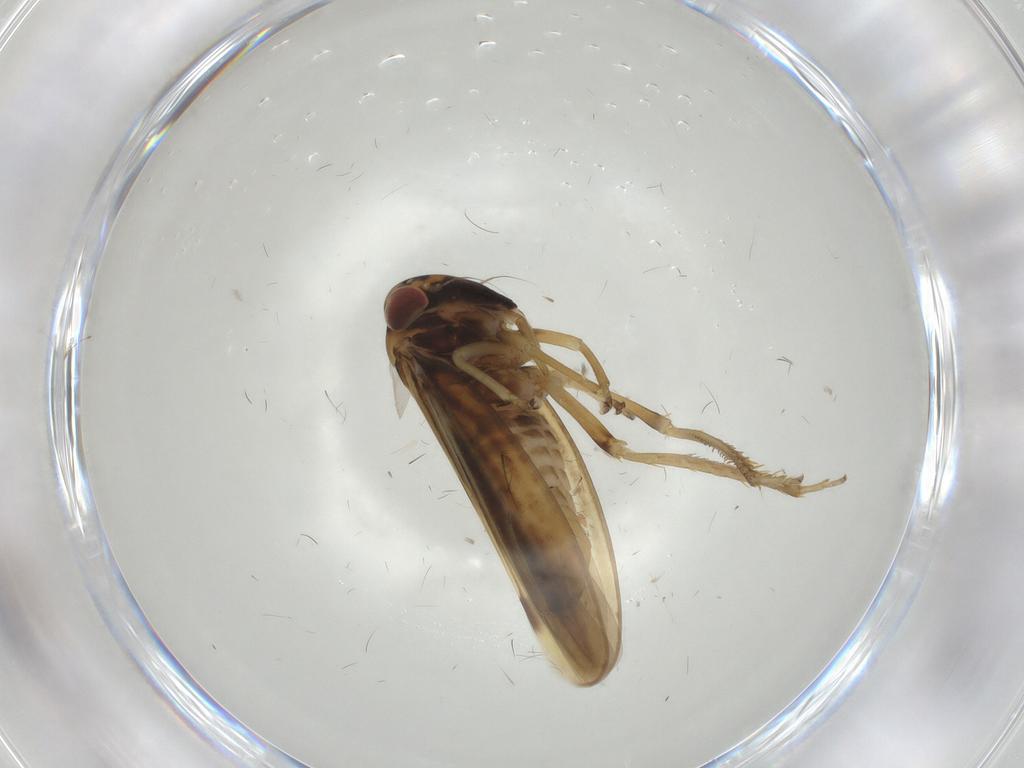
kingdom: Animalia
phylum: Arthropoda
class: Insecta
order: Hemiptera
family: Cicadellidae
